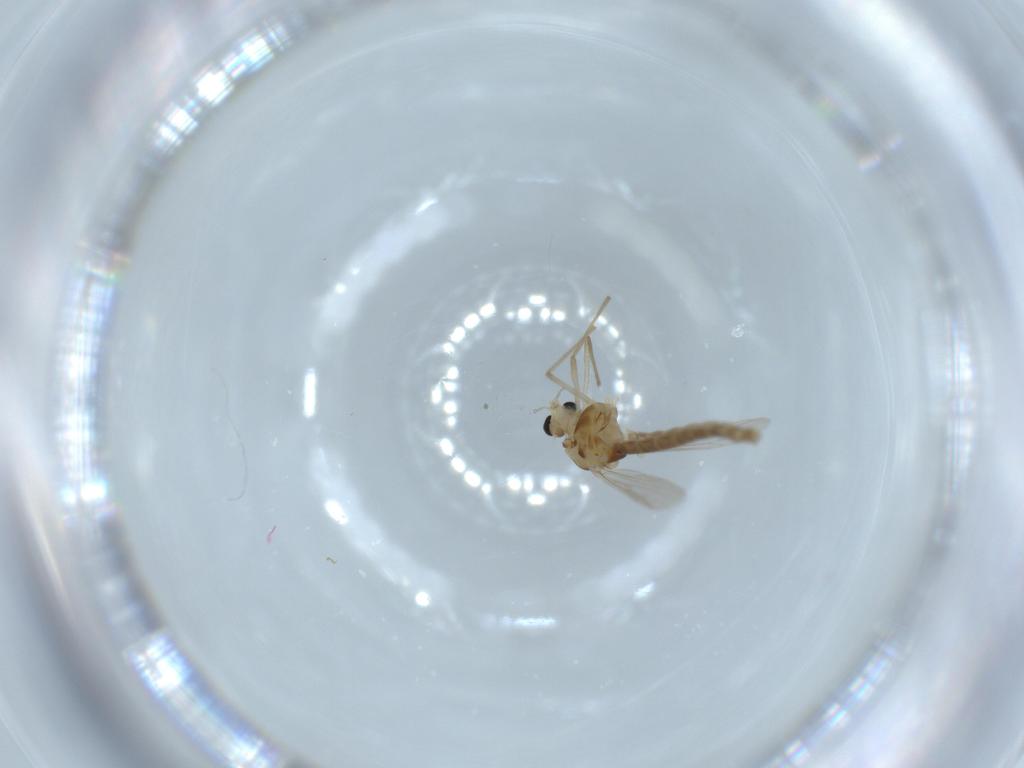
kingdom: Animalia
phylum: Arthropoda
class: Insecta
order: Diptera
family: Chironomidae
